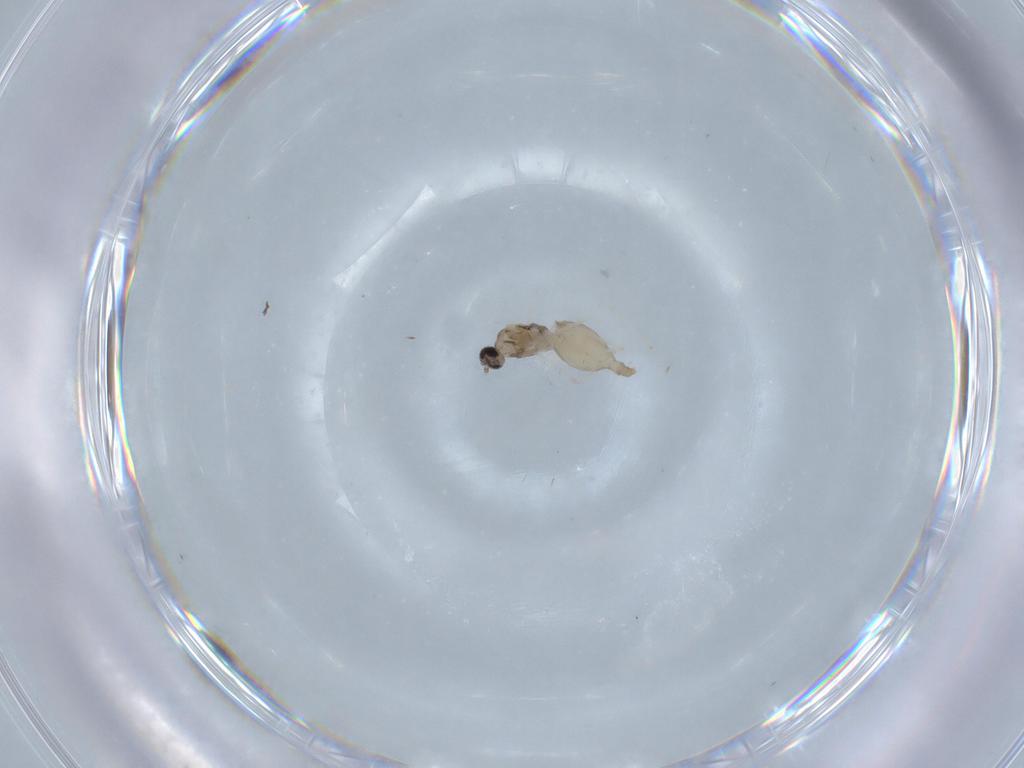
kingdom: Animalia
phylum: Arthropoda
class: Insecta
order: Diptera
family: Cecidomyiidae
